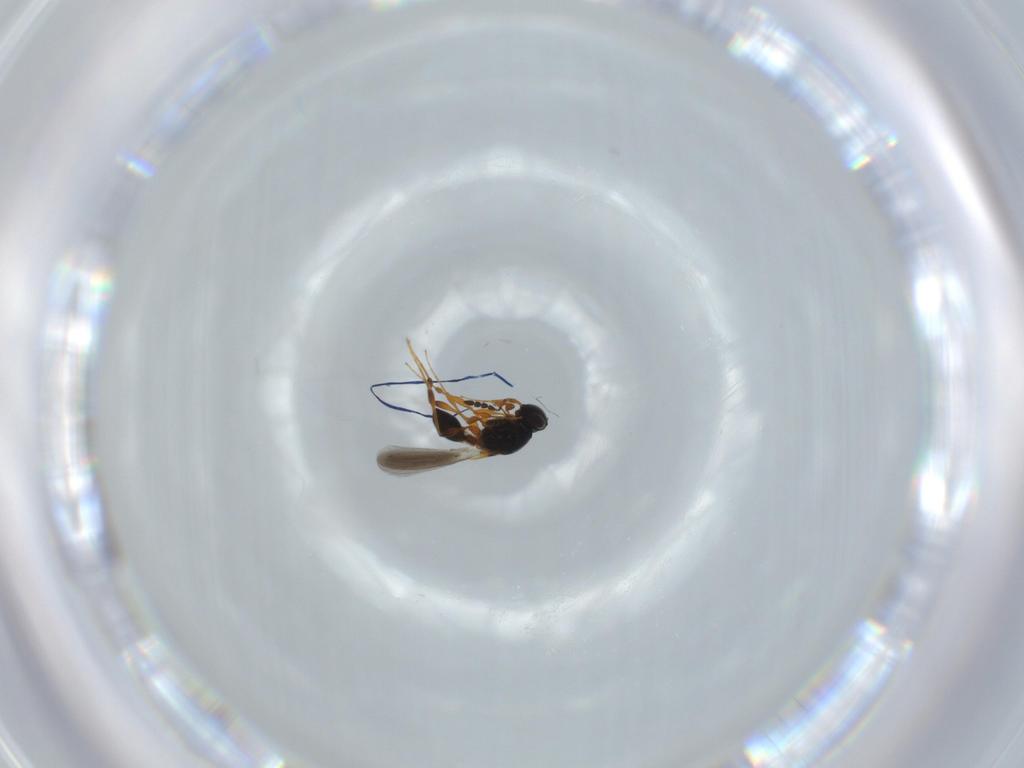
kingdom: Animalia
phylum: Arthropoda
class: Insecta
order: Hymenoptera
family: Platygastridae
